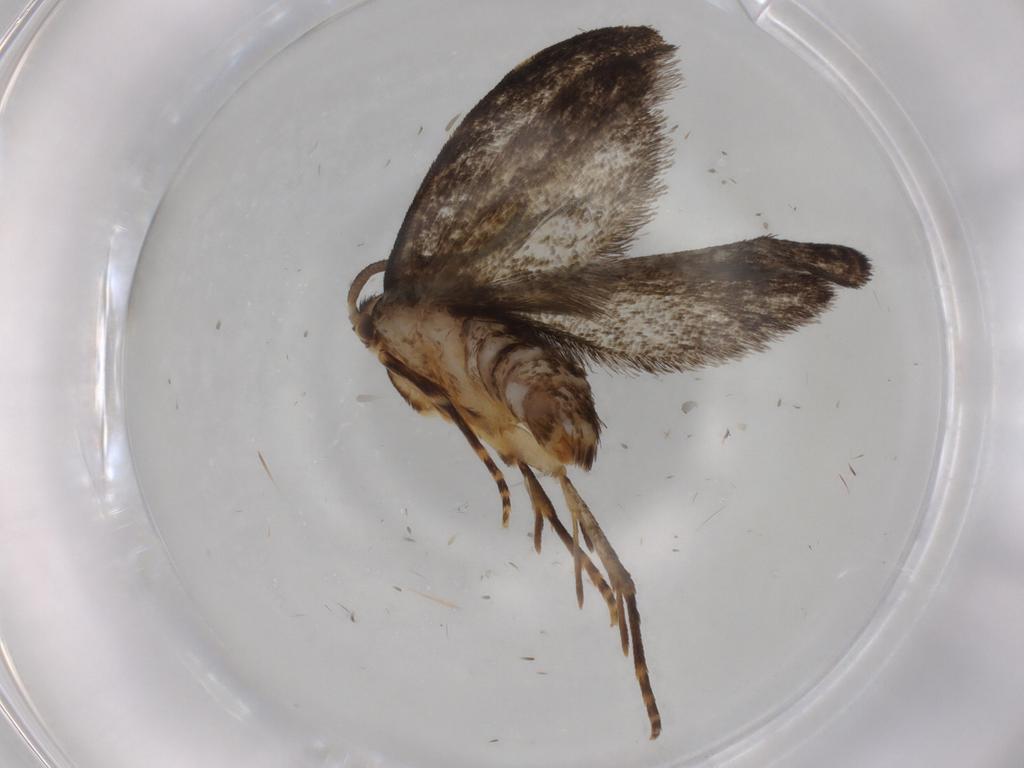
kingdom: Animalia
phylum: Arthropoda
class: Insecta
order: Lepidoptera
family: Dryadaulidae
